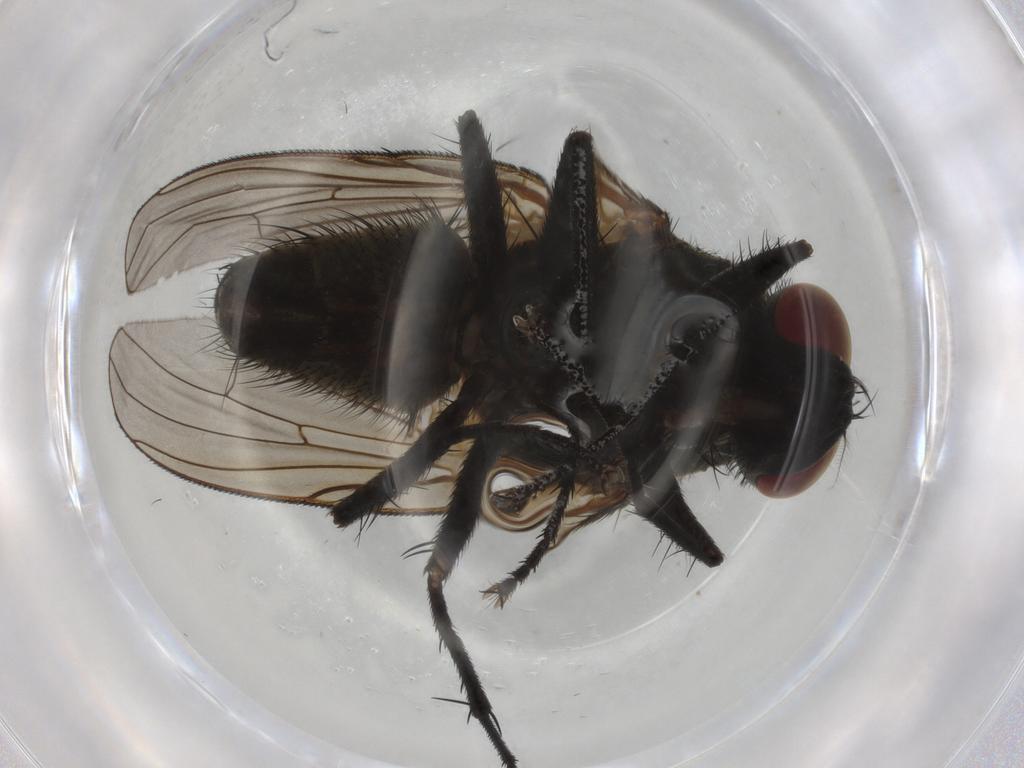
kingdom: Animalia
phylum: Arthropoda
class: Insecta
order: Diptera
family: Muscidae
